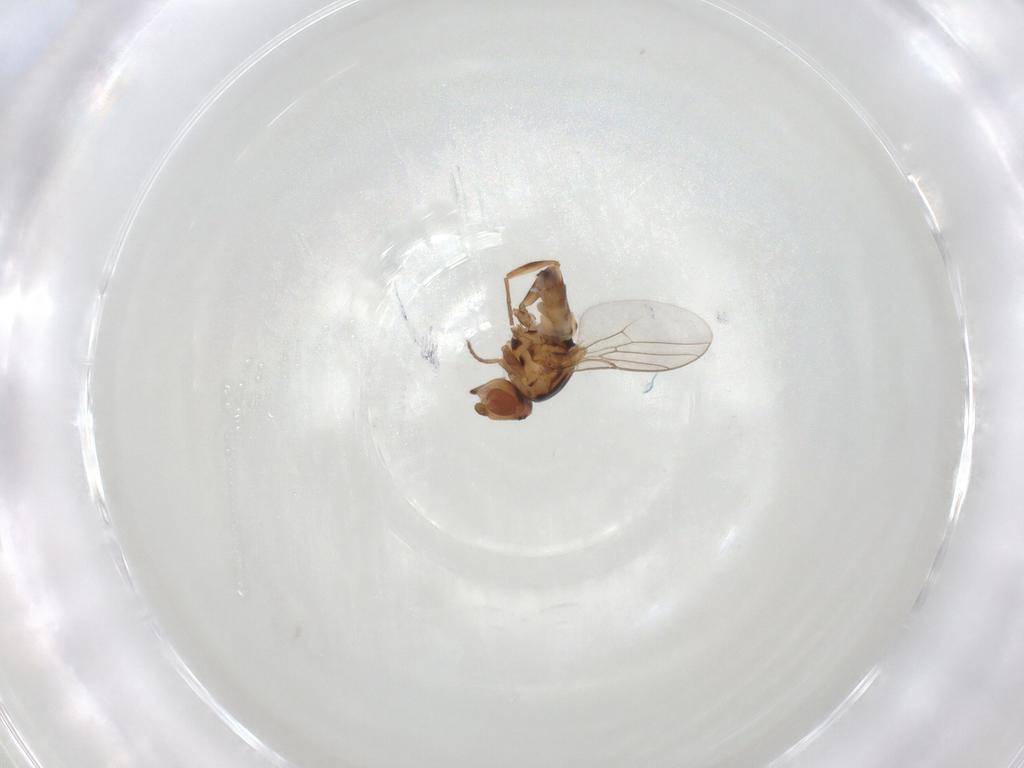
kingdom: Animalia
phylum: Arthropoda
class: Insecta
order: Diptera
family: Chloropidae
